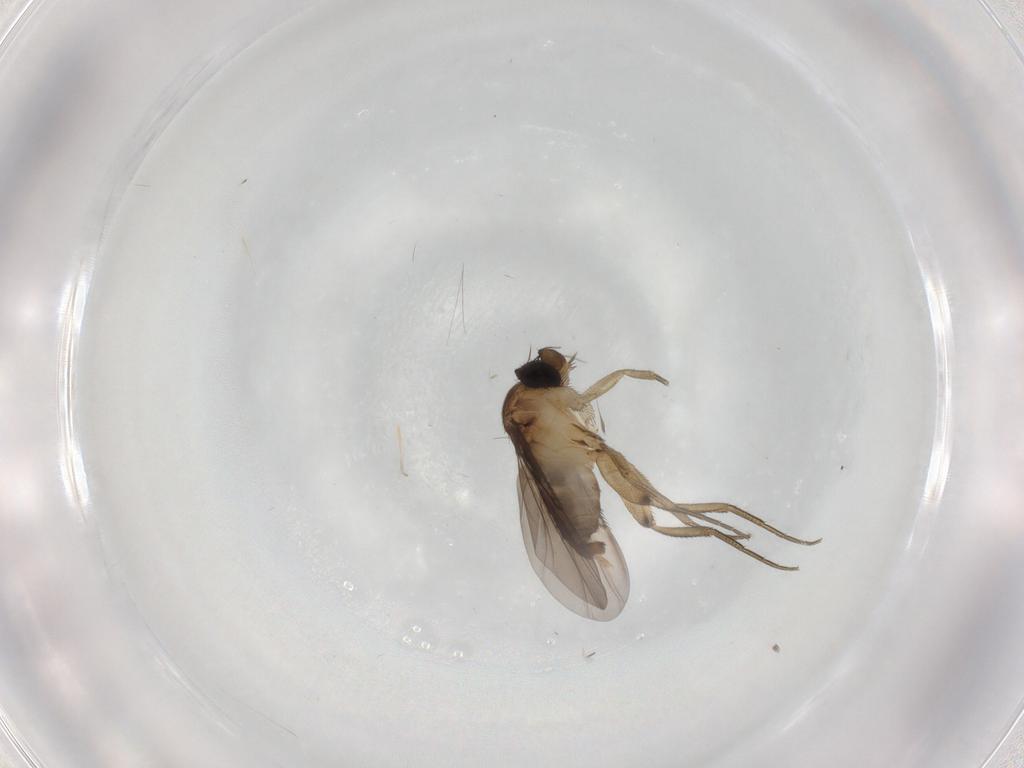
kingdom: Animalia
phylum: Arthropoda
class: Insecta
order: Diptera
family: Phoridae
